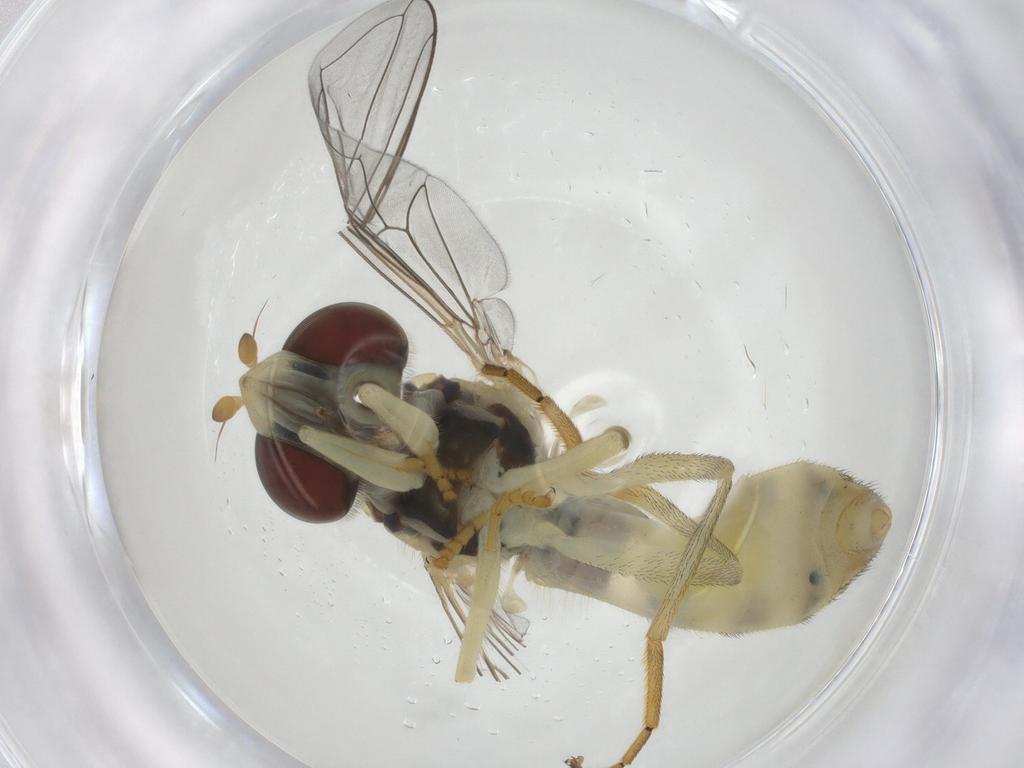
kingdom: Animalia
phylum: Arthropoda
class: Insecta
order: Diptera
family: Syrphidae
